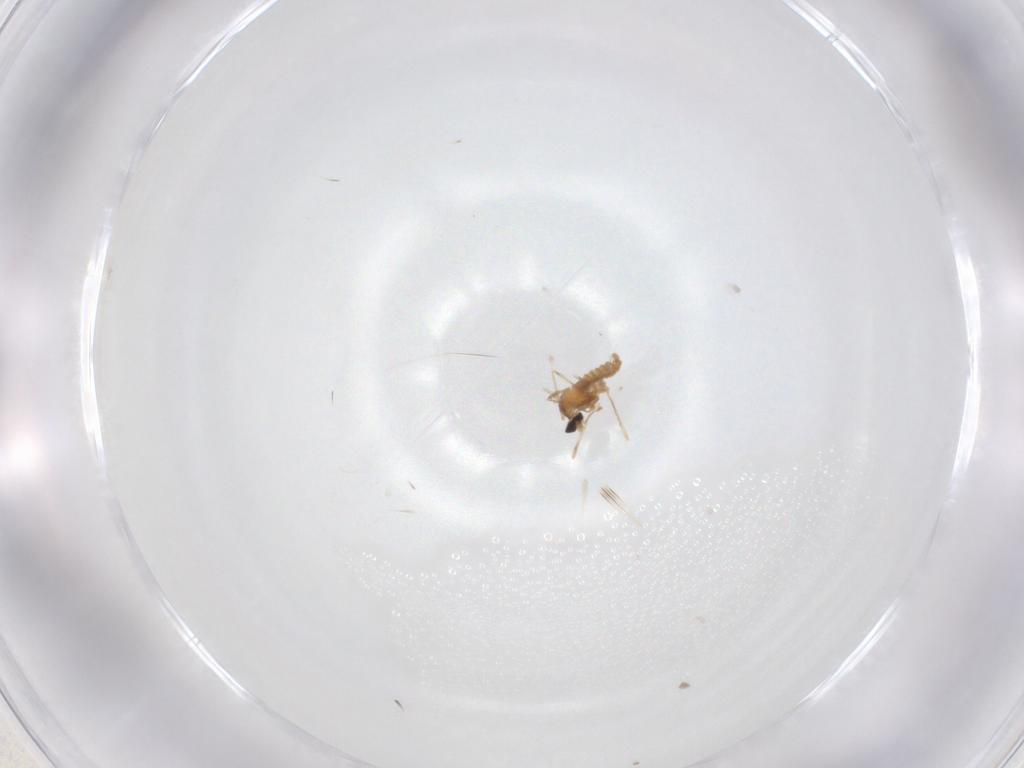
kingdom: Animalia
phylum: Arthropoda
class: Insecta
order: Diptera
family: Cecidomyiidae
